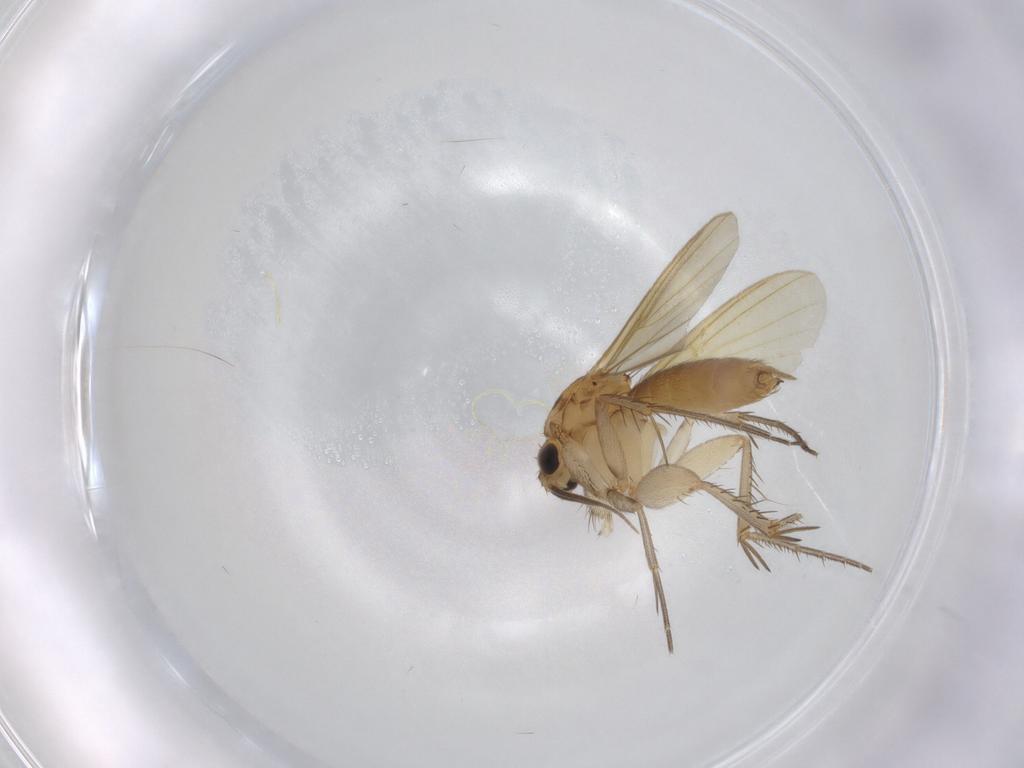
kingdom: Animalia
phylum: Arthropoda
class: Insecta
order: Diptera
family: Mycetophilidae
